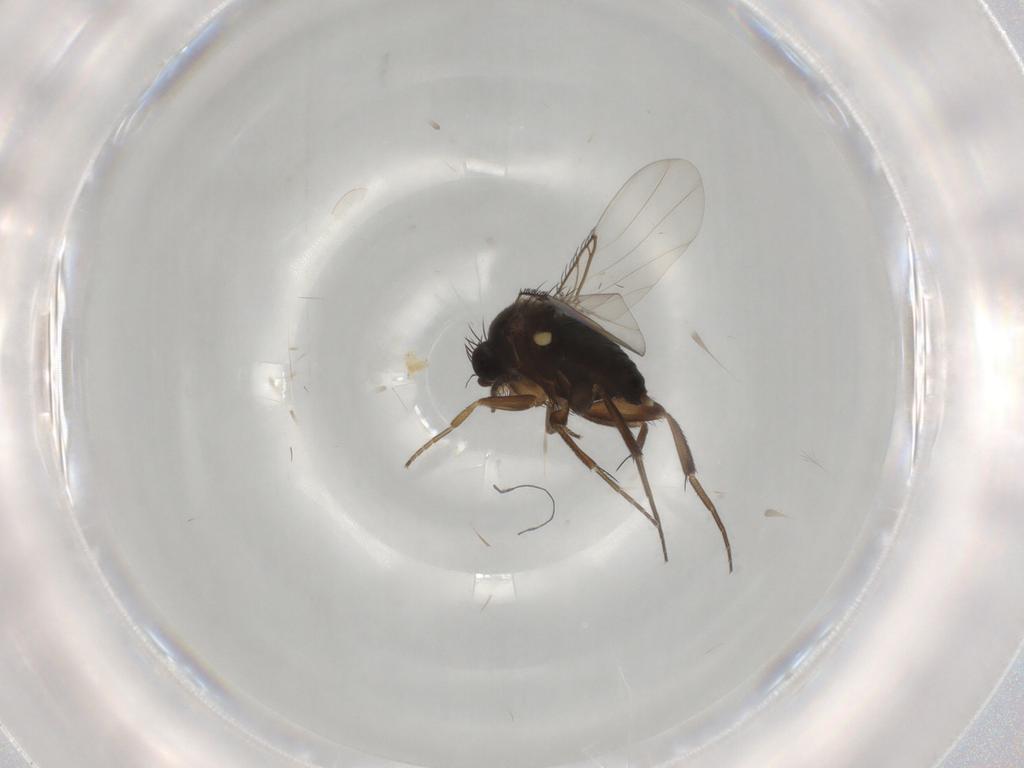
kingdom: Animalia
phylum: Arthropoda
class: Insecta
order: Diptera
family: Phoridae
